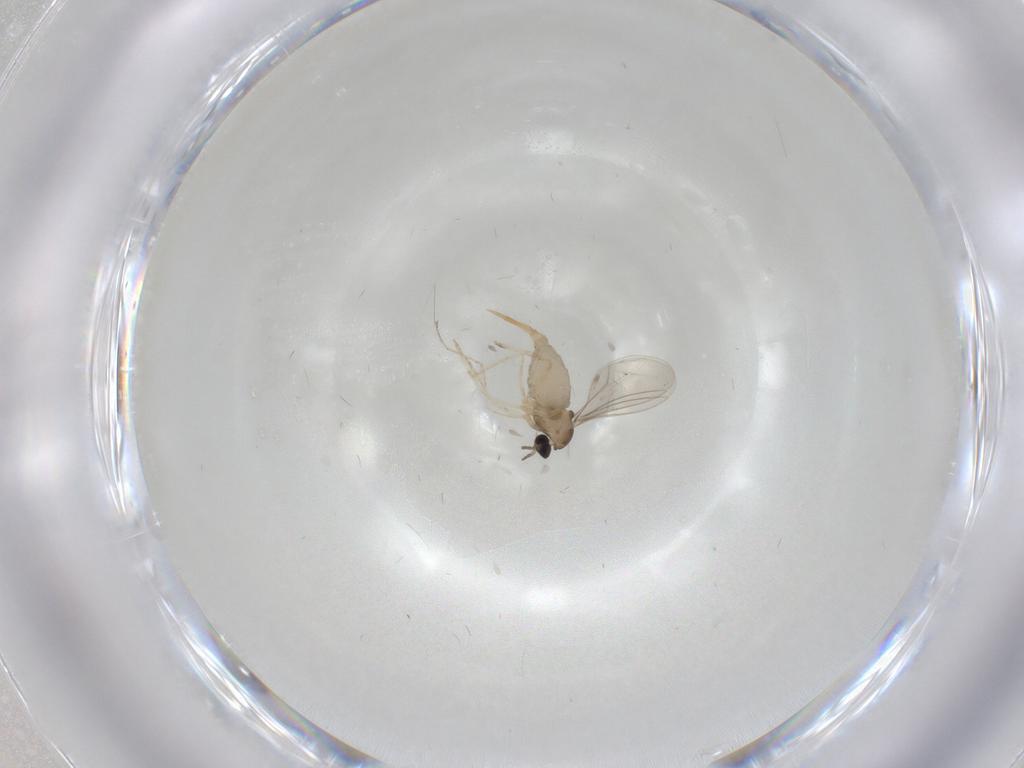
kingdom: Animalia
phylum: Arthropoda
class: Insecta
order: Diptera
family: Cecidomyiidae
